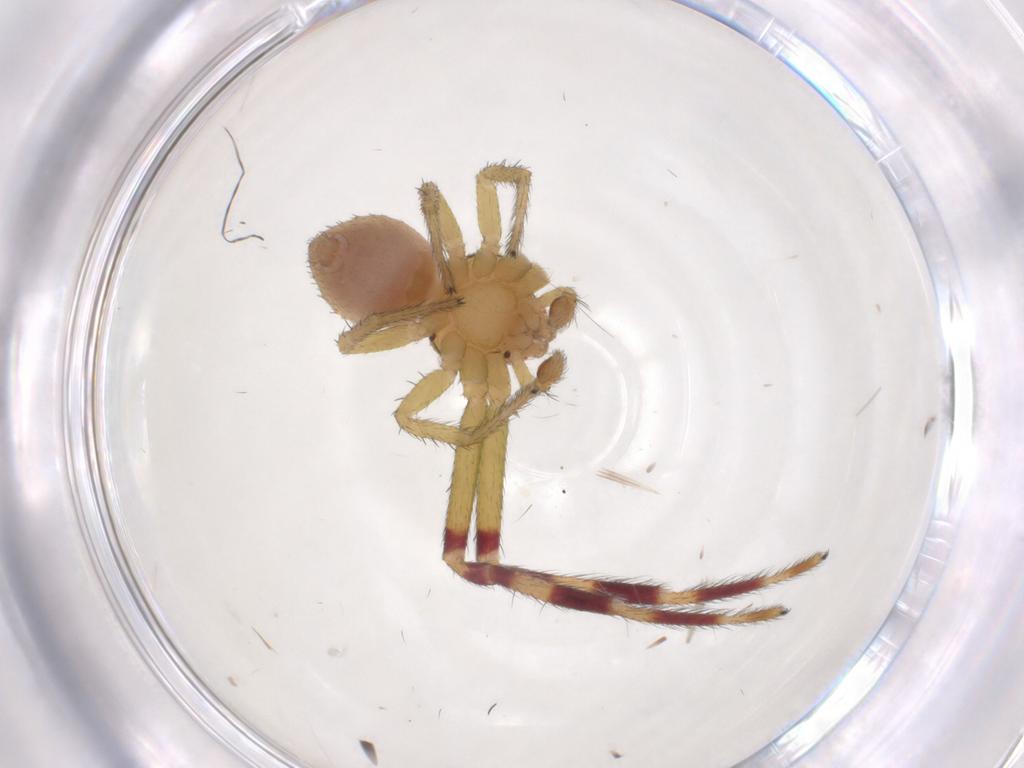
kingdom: Animalia
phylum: Arthropoda
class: Arachnida
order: Araneae
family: Thomisidae
